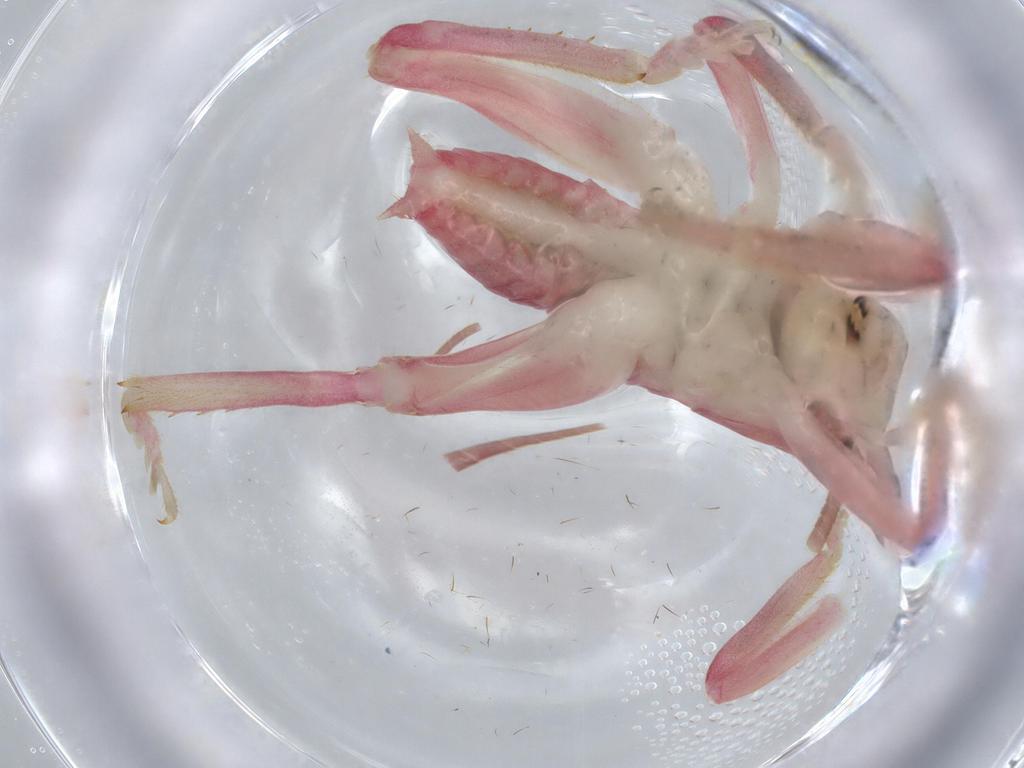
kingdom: Animalia
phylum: Arthropoda
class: Insecta
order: Orthoptera
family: Gryllacrididae
